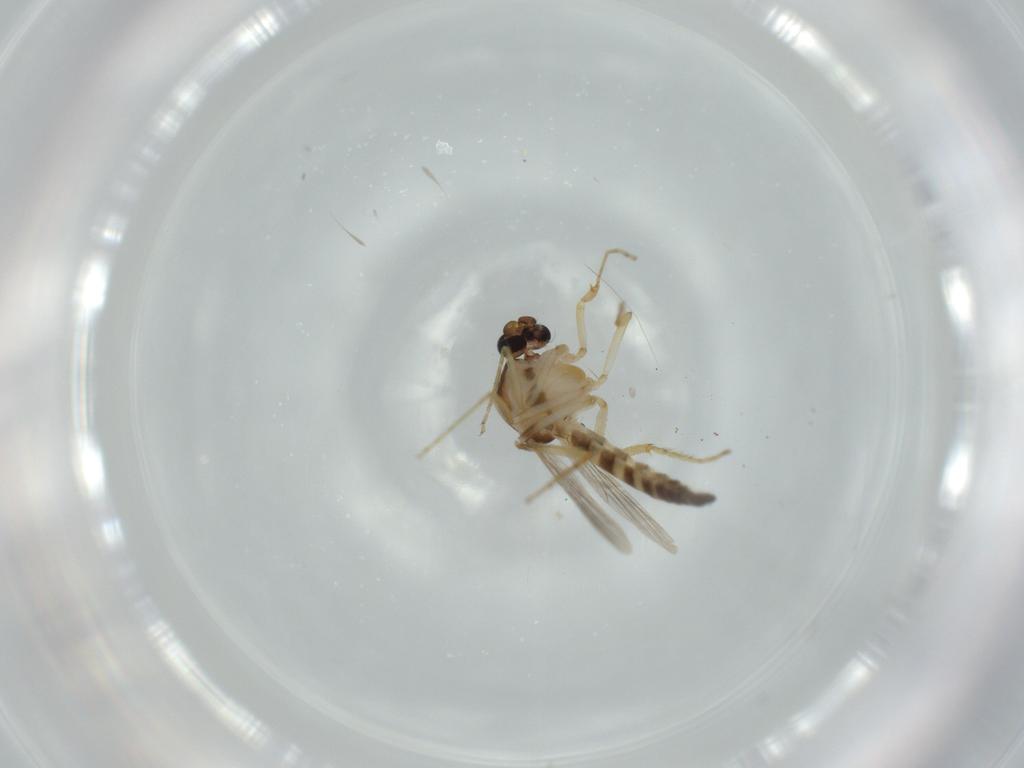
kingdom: Animalia
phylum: Arthropoda
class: Insecta
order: Diptera
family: Ceratopogonidae
